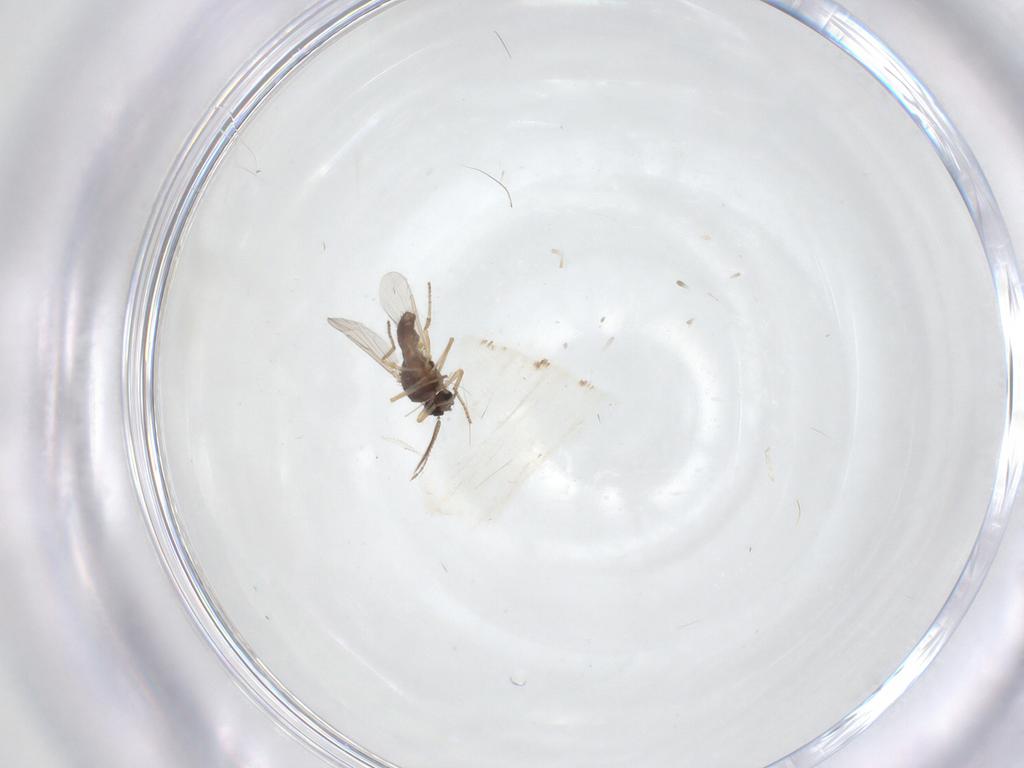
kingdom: Animalia
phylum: Arthropoda
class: Insecta
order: Diptera
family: Ceratopogonidae
